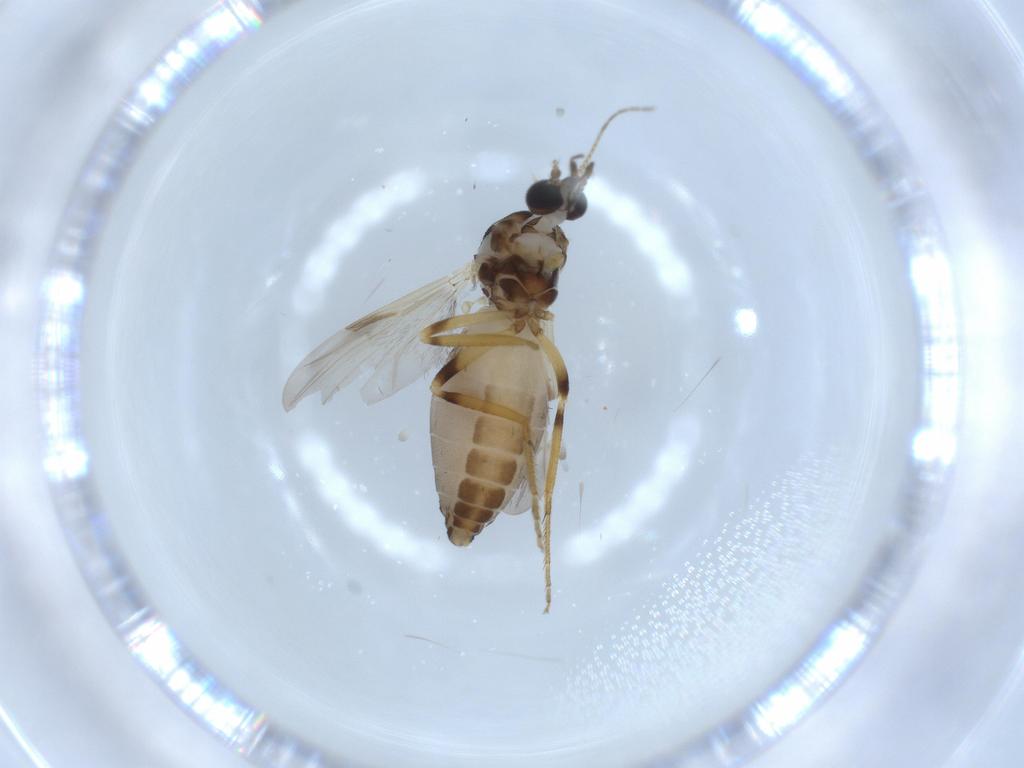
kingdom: Animalia
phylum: Arthropoda
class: Insecta
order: Diptera
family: Ceratopogonidae
